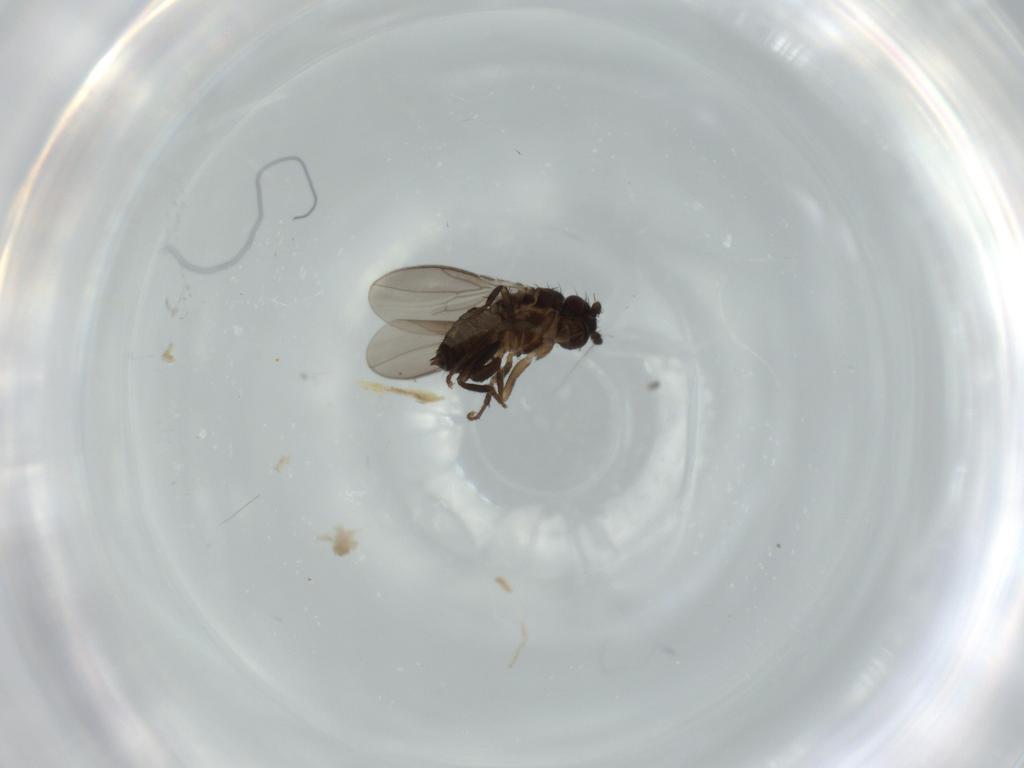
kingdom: Animalia
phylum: Arthropoda
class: Insecta
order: Diptera
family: Sphaeroceridae
